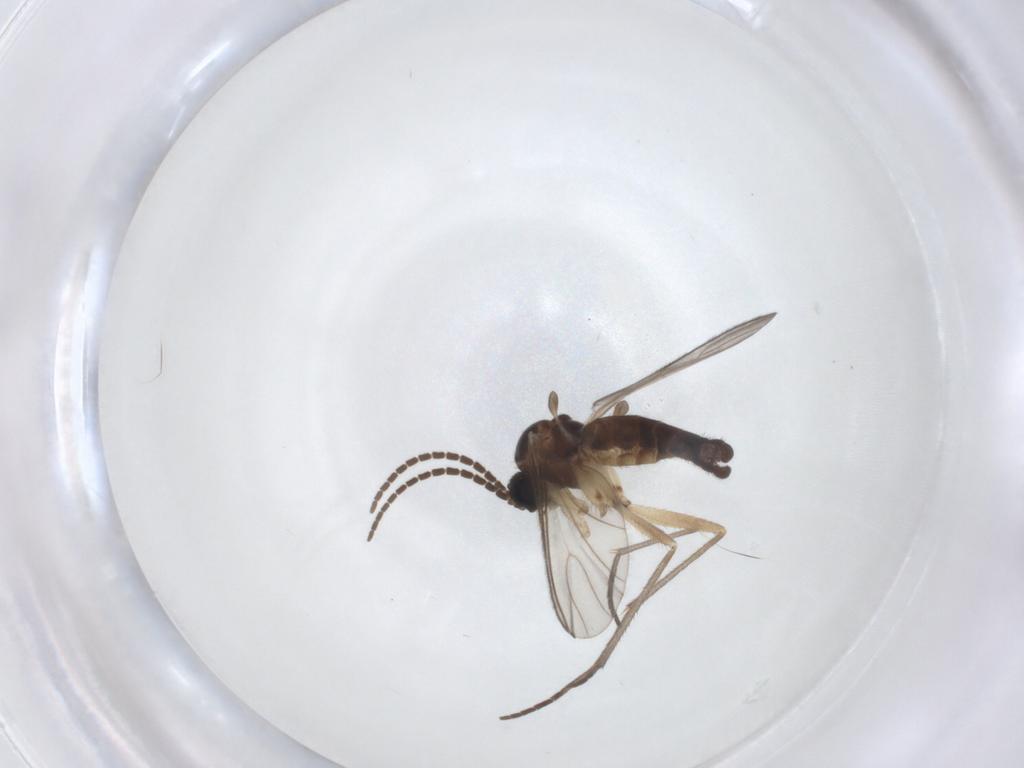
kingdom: Animalia
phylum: Arthropoda
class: Insecta
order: Diptera
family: Sciaridae
